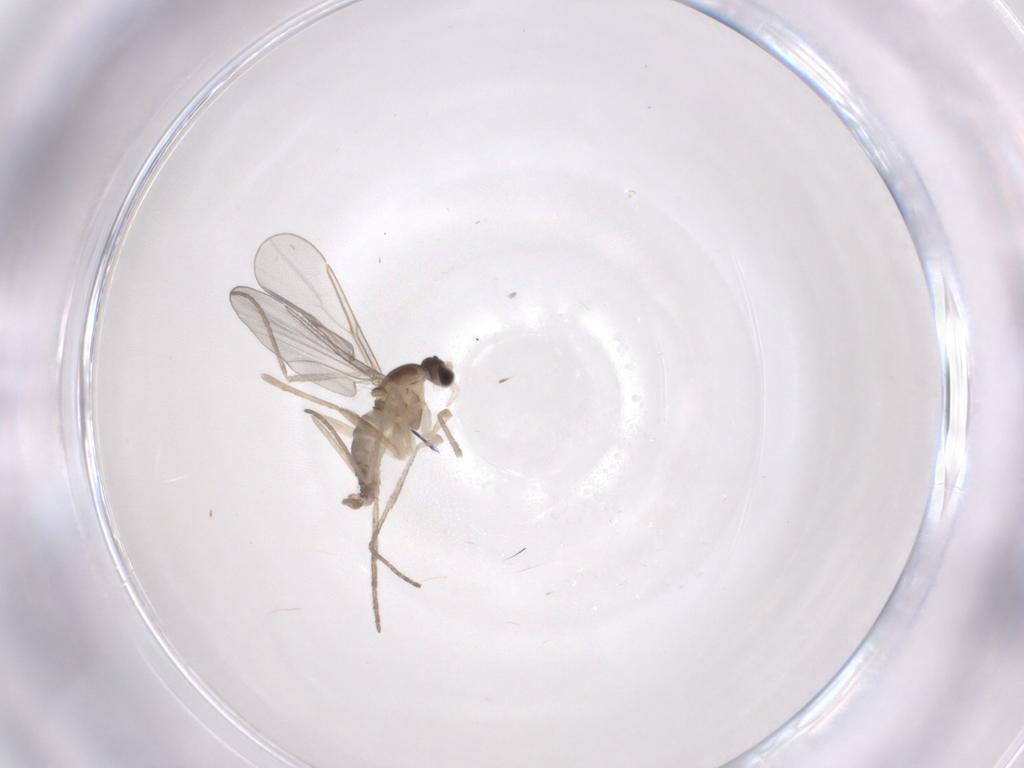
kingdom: Animalia
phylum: Arthropoda
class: Insecta
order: Diptera
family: Cecidomyiidae
